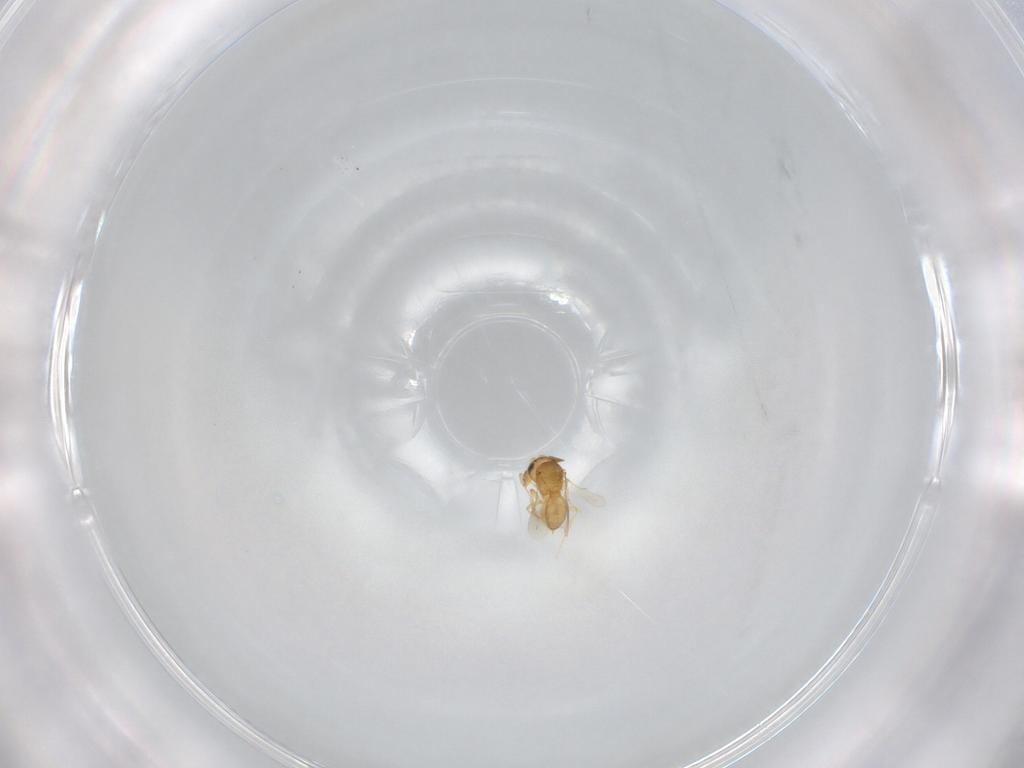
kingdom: Animalia
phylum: Arthropoda
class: Insecta
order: Hymenoptera
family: Scelionidae
